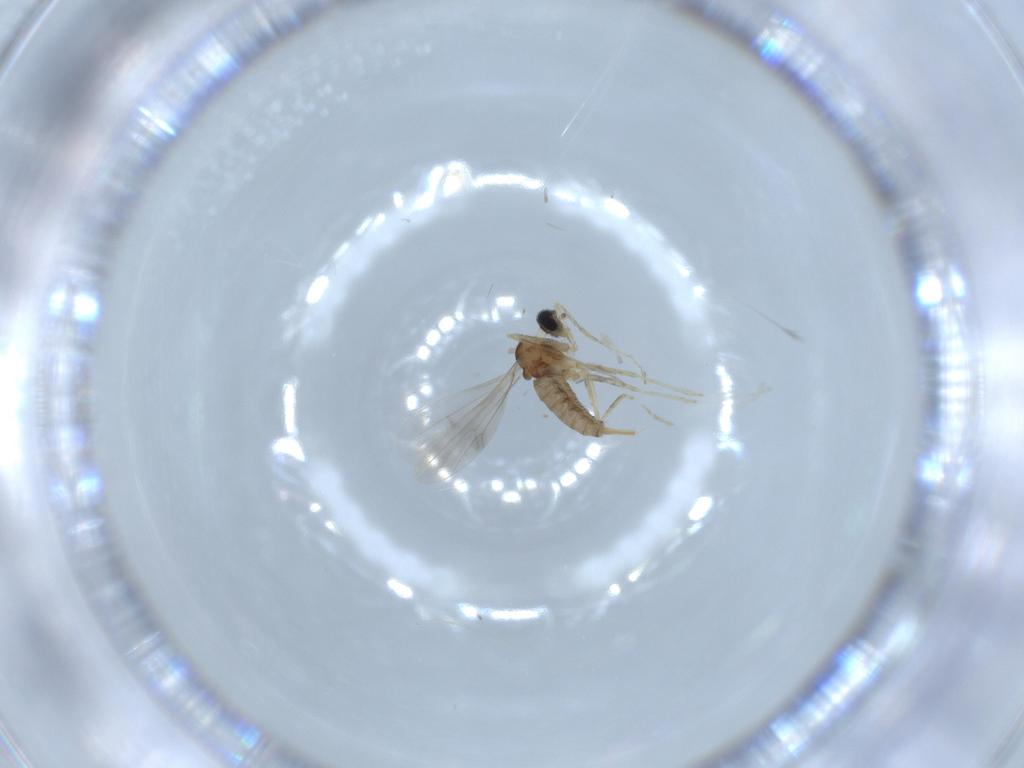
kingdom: Animalia
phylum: Arthropoda
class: Insecta
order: Diptera
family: Cecidomyiidae
